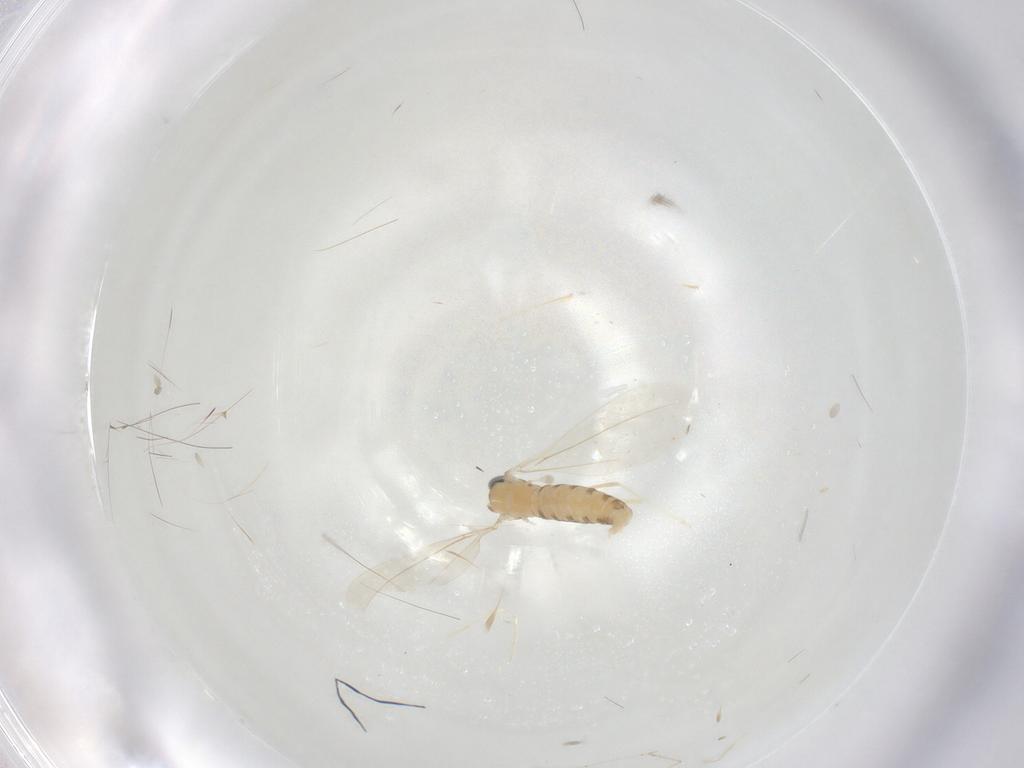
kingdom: Animalia
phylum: Arthropoda
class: Insecta
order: Diptera
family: Cecidomyiidae
